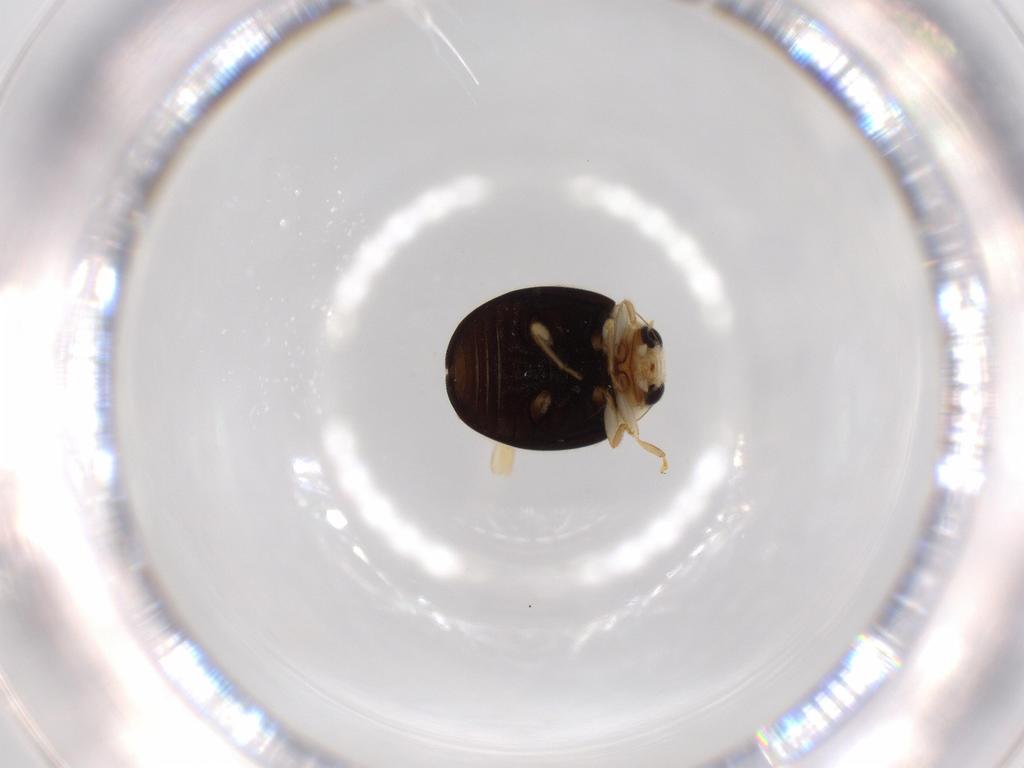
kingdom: Animalia
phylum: Arthropoda
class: Insecta
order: Coleoptera
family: Coccinellidae
